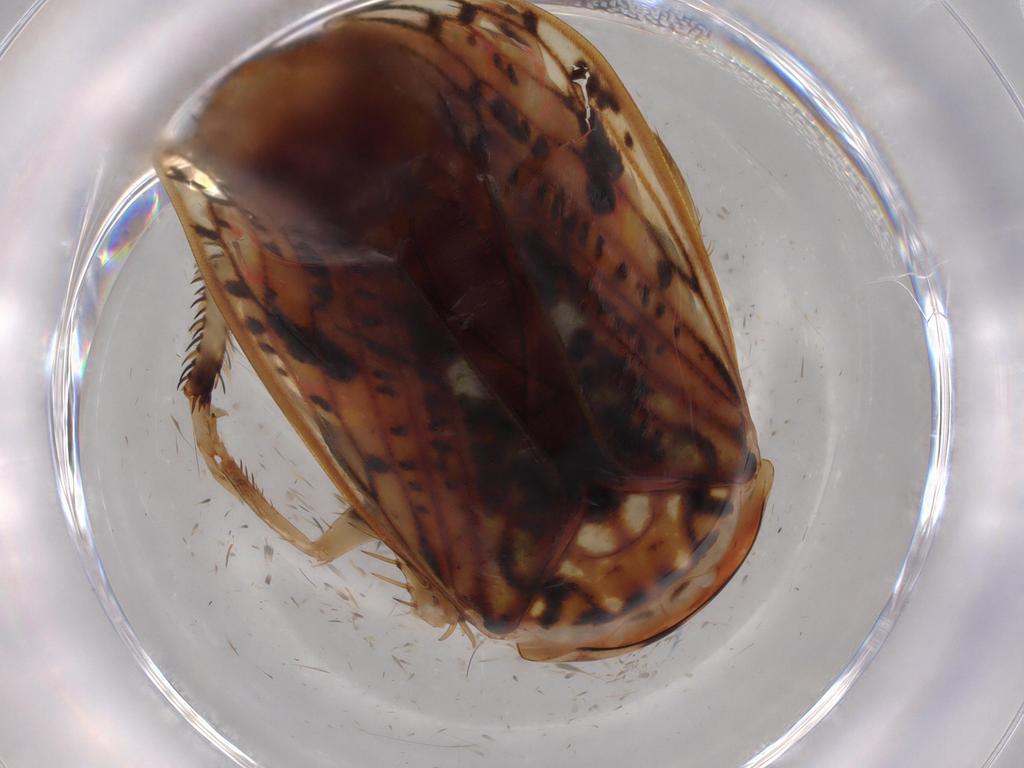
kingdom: Animalia
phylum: Arthropoda
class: Insecta
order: Hemiptera
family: Cicadellidae
